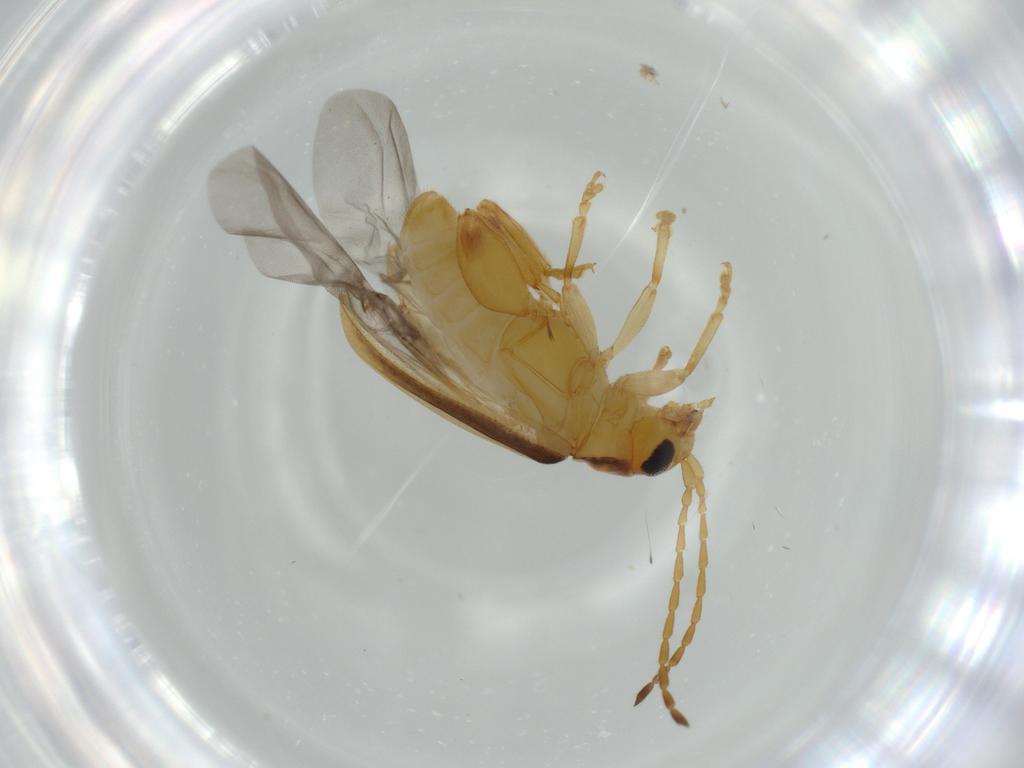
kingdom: Animalia
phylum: Arthropoda
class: Insecta
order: Coleoptera
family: Chrysomelidae
